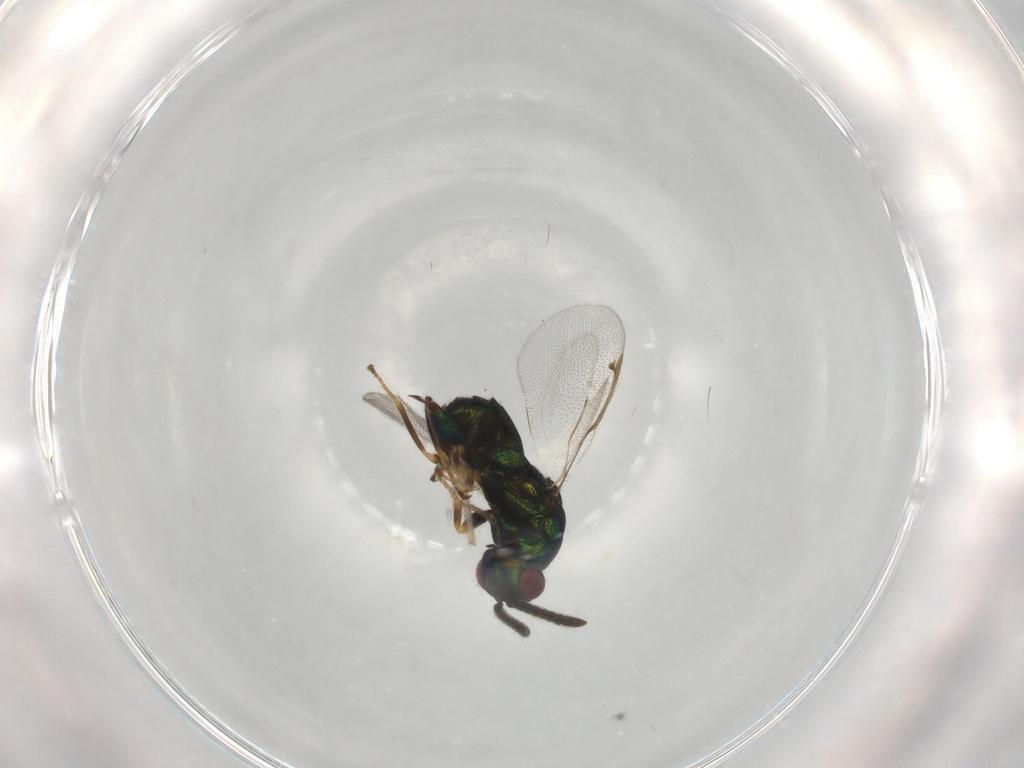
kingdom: Animalia
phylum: Arthropoda
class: Insecta
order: Hymenoptera
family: Torymidae
